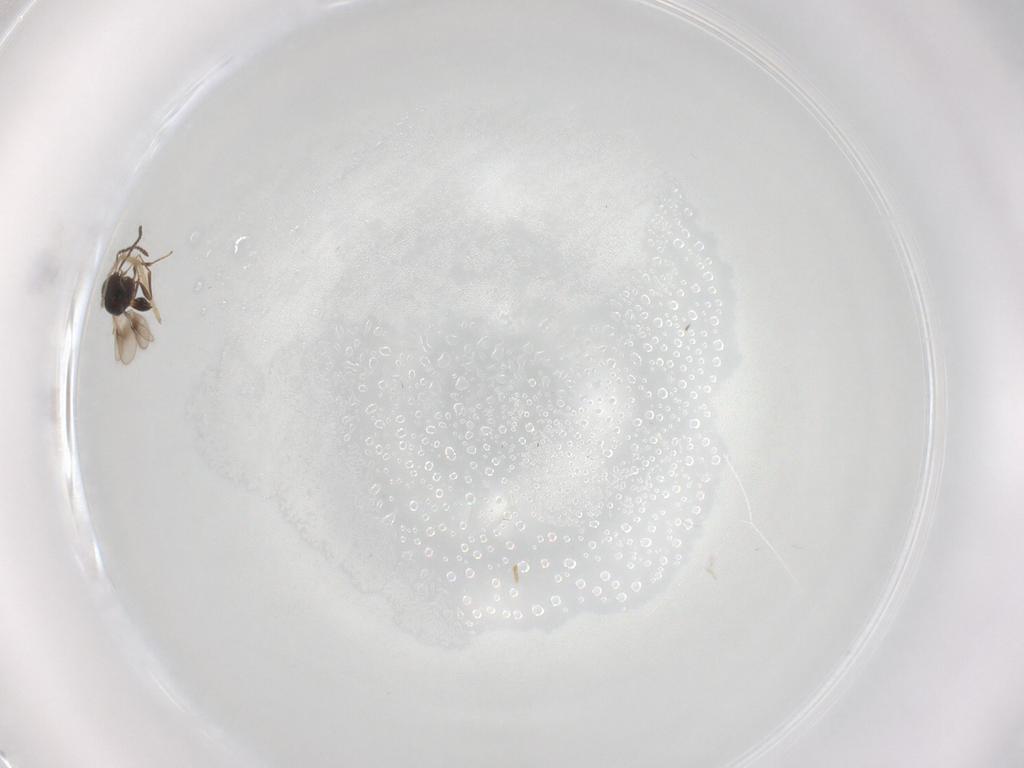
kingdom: Animalia
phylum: Arthropoda
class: Insecta
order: Hymenoptera
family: Scelionidae
